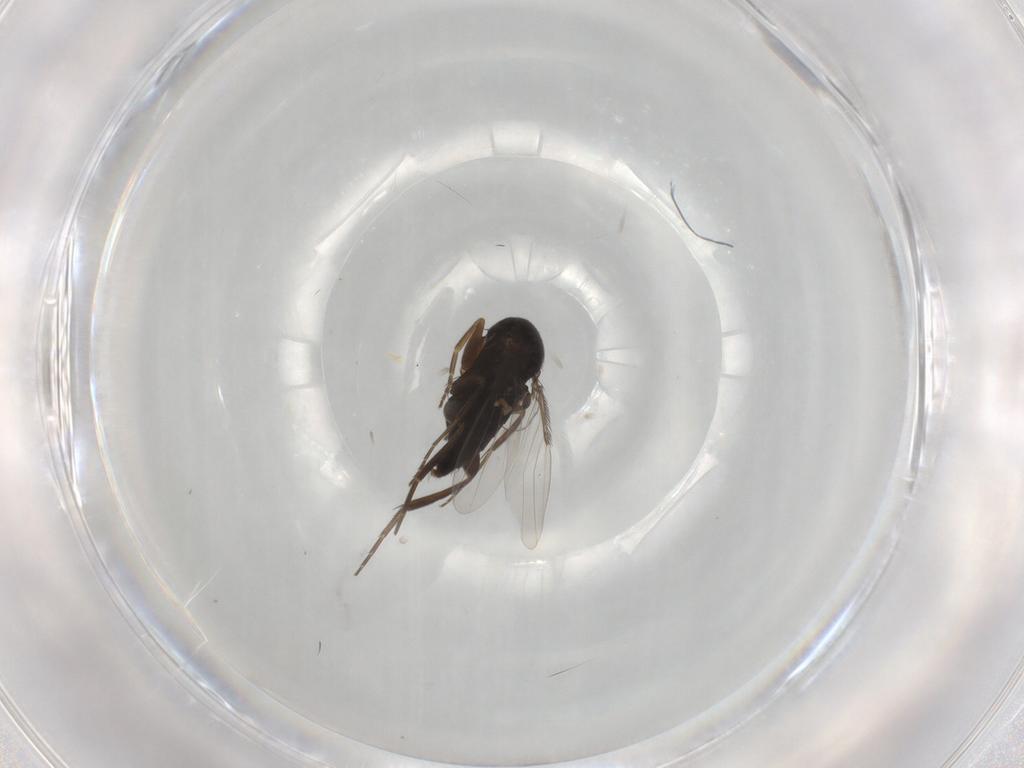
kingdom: Animalia
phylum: Arthropoda
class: Insecta
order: Diptera
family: Phoridae
